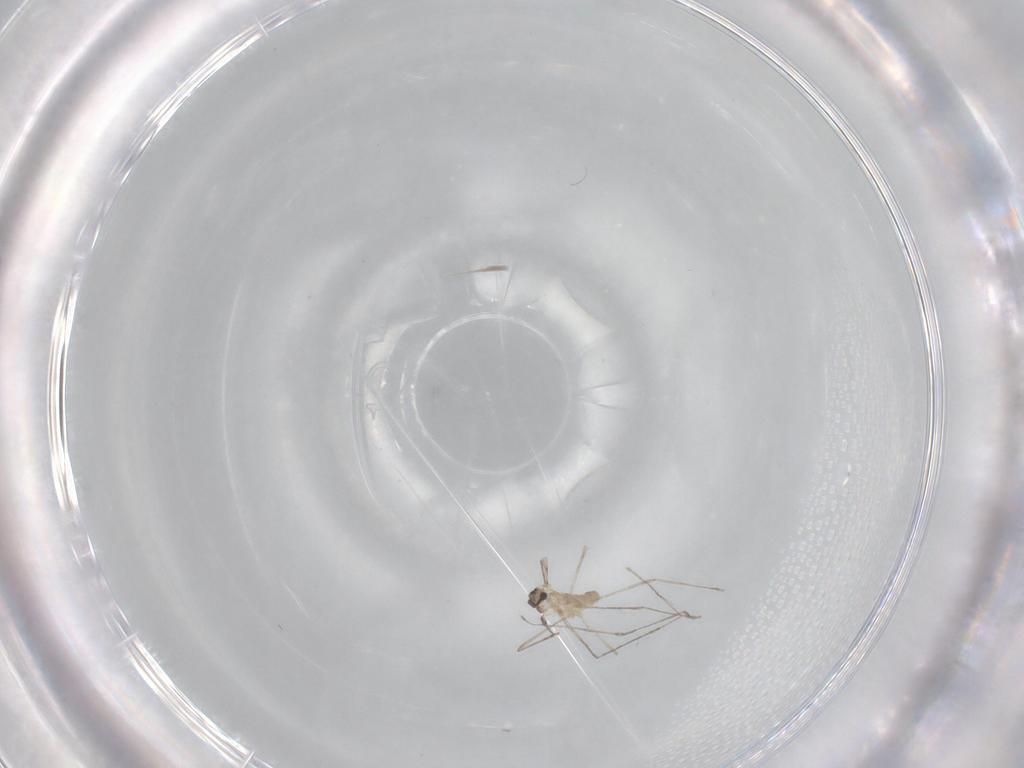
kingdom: Animalia
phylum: Arthropoda
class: Insecta
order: Diptera
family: Cecidomyiidae
